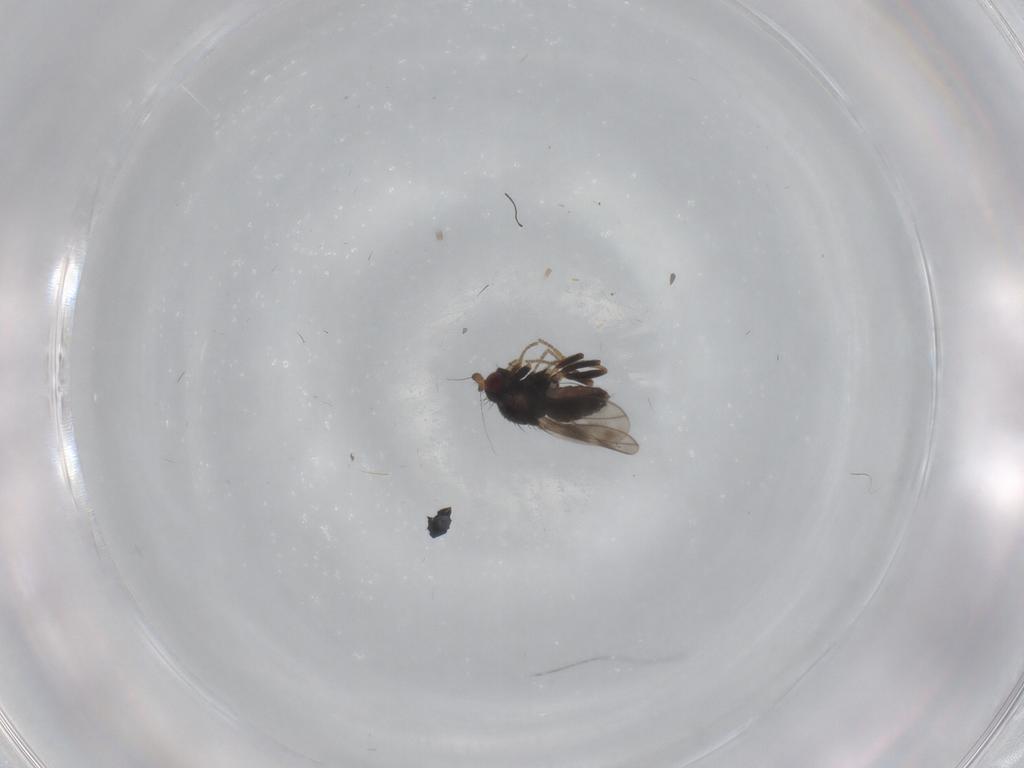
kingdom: Animalia
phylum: Arthropoda
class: Insecta
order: Diptera
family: Sphaeroceridae
